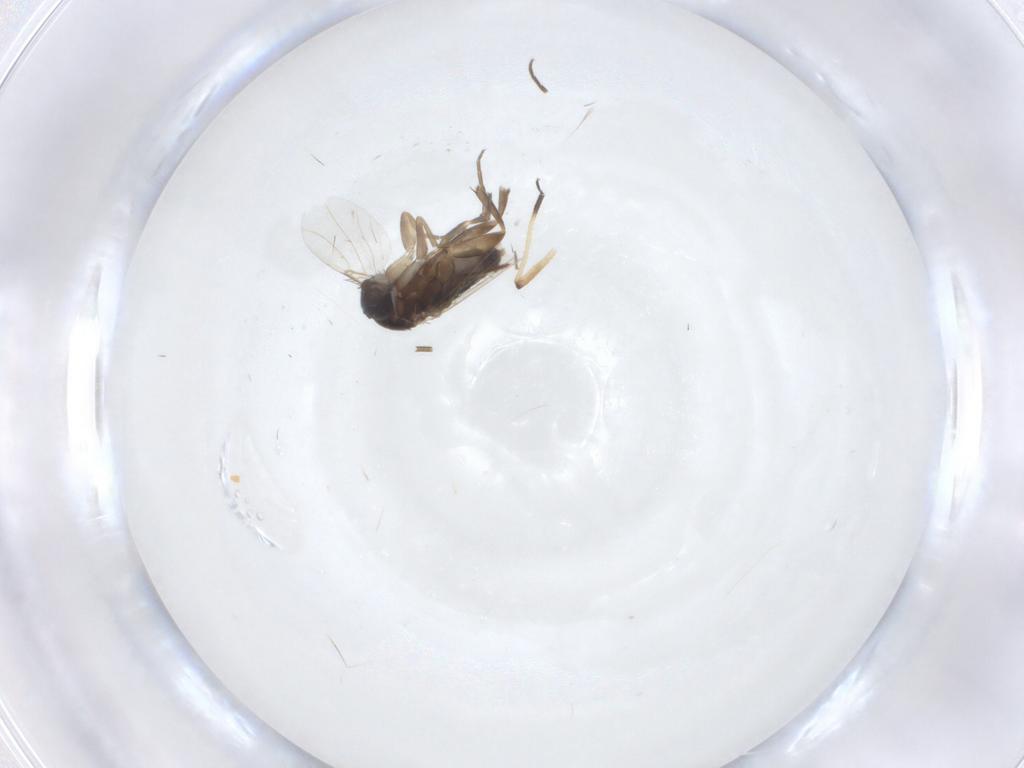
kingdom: Animalia
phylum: Arthropoda
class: Insecta
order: Diptera
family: Phoridae
